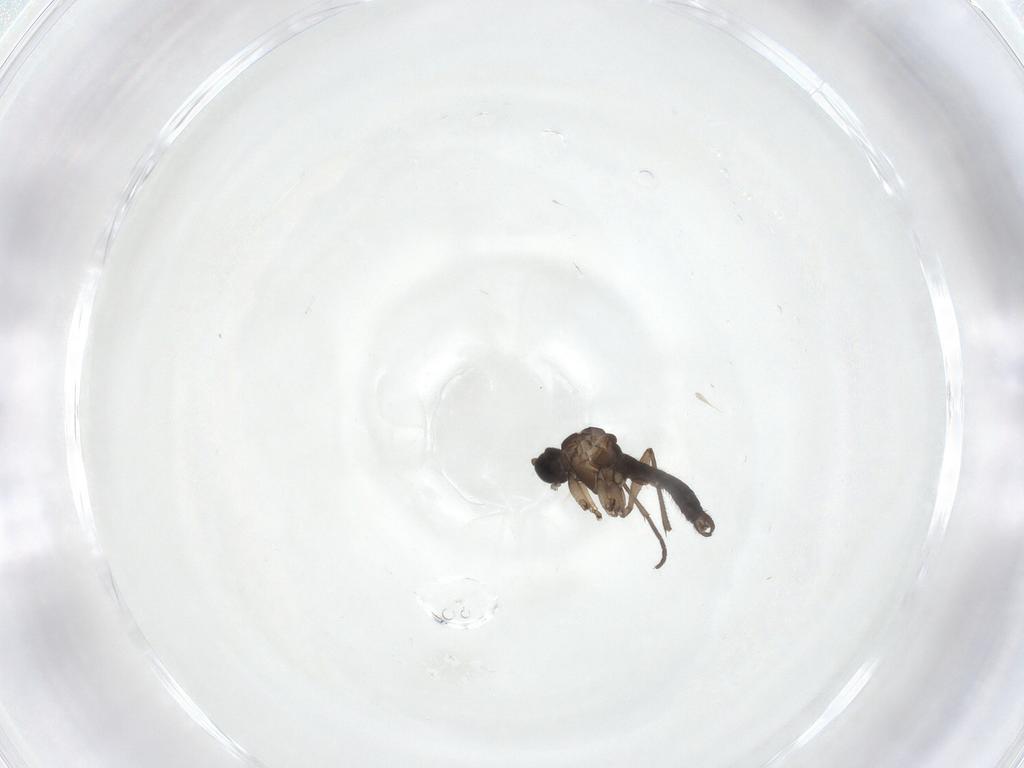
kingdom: Animalia
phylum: Arthropoda
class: Insecta
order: Diptera
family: Sciaridae
